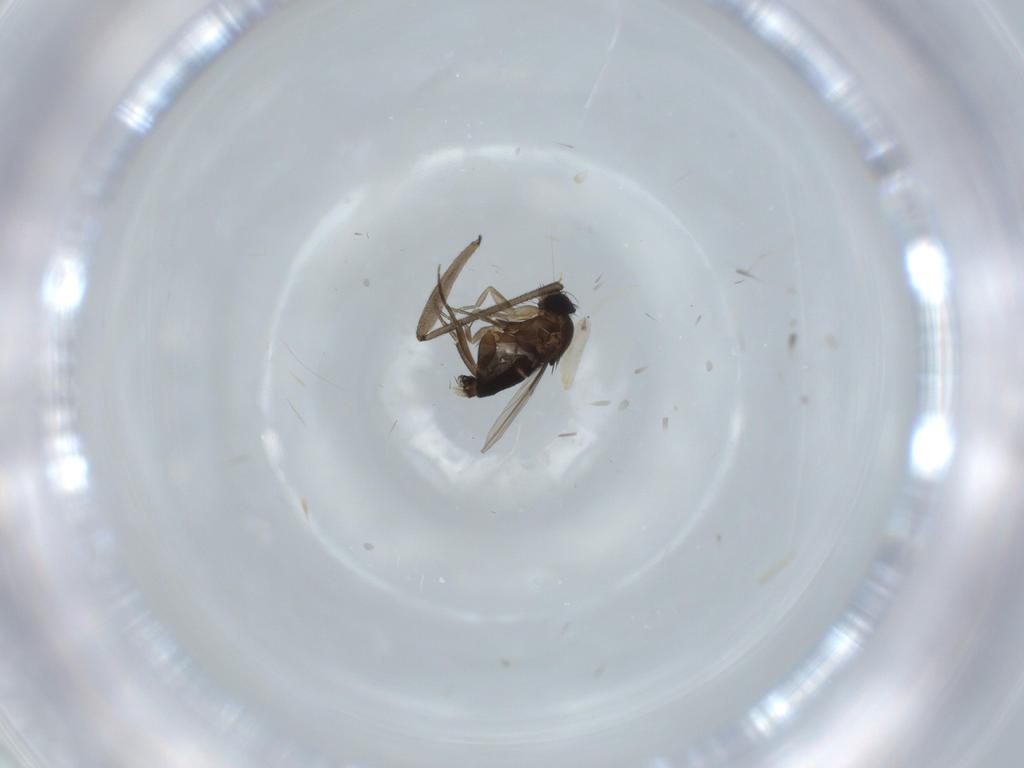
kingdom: Animalia
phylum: Arthropoda
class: Insecta
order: Diptera
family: Phoridae
